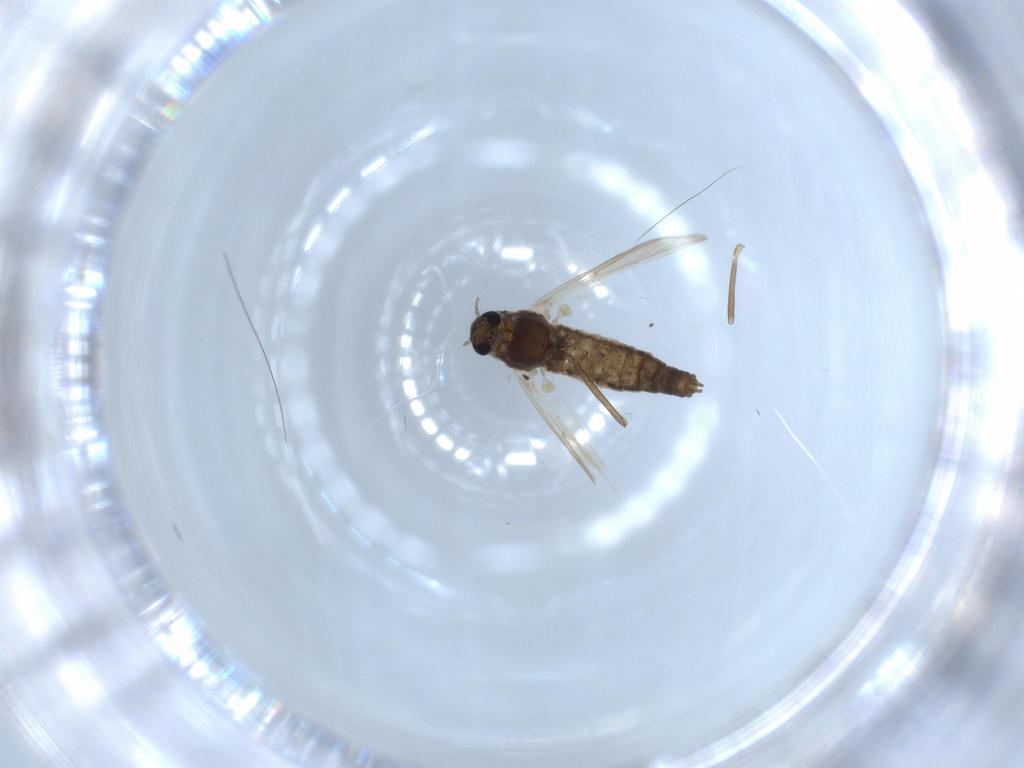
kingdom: Animalia
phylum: Arthropoda
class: Insecta
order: Diptera
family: Chironomidae
